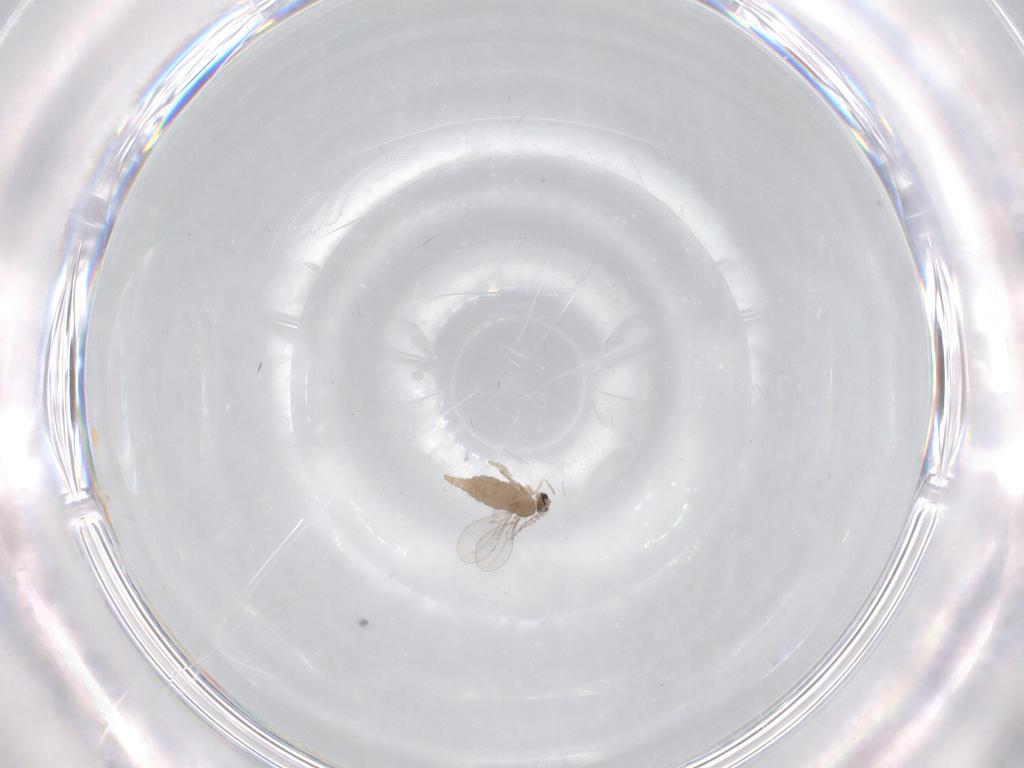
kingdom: Animalia
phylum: Arthropoda
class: Insecta
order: Diptera
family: Cecidomyiidae
